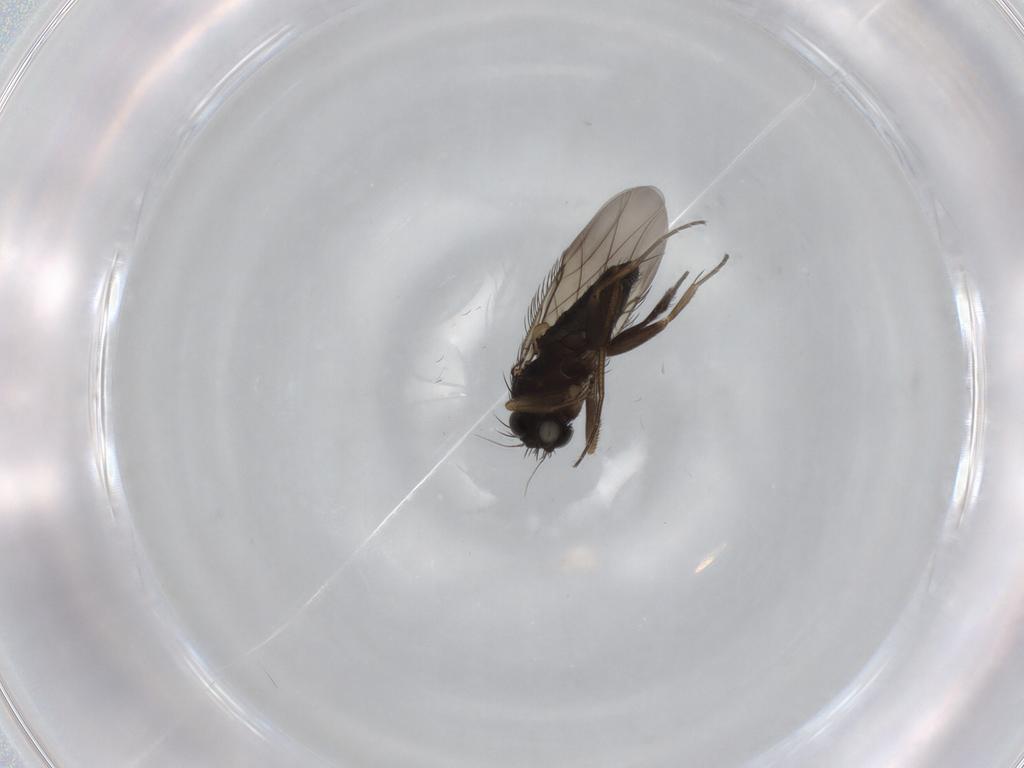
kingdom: Animalia
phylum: Arthropoda
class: Insecta
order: Diptera
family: Phoridae
